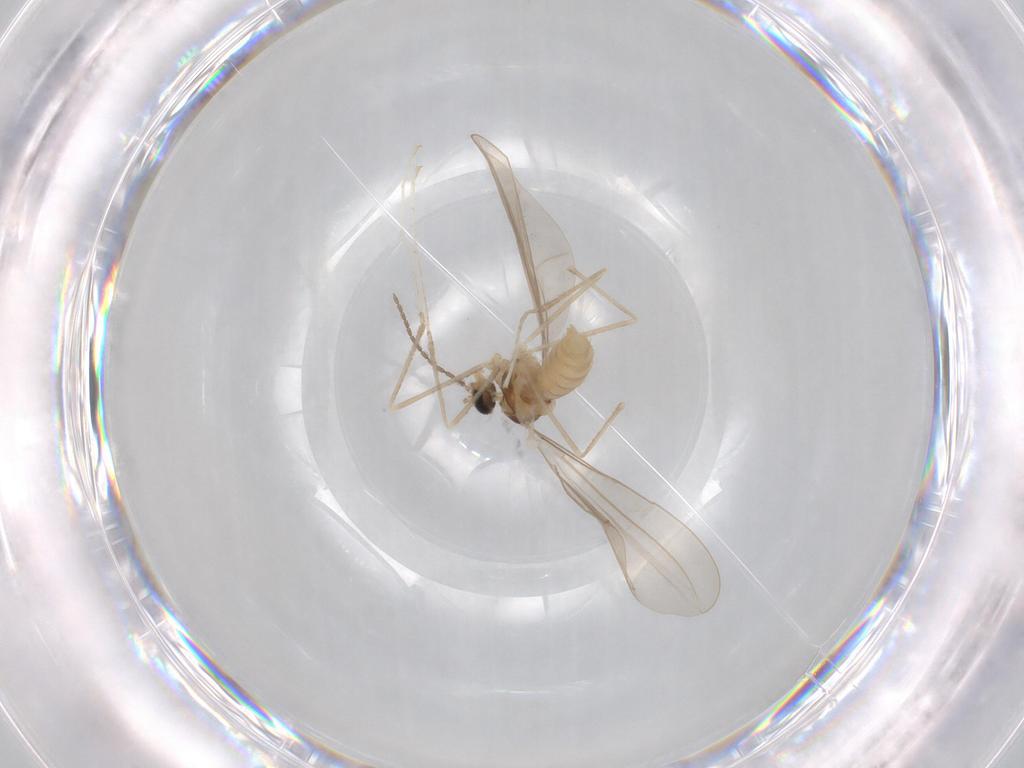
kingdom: Animalia
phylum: Arthropoda
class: Insecta
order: Diptera
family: Cecidomyiidae
